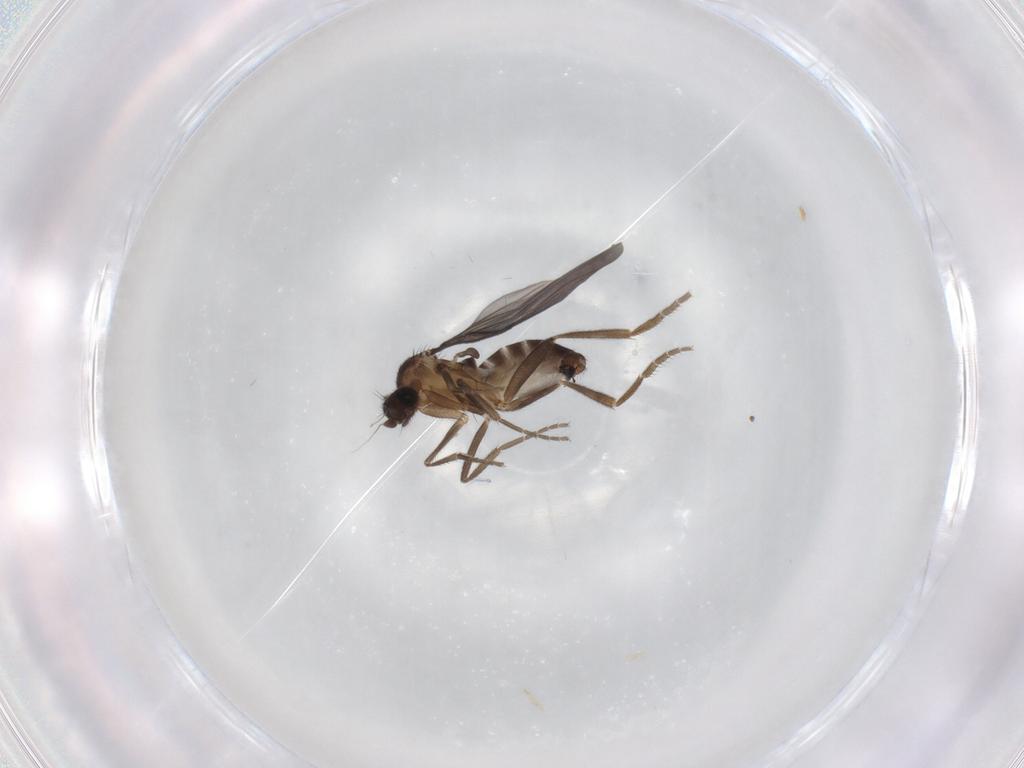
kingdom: Animalia
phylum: Arthropoda
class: Insecta
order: Diptera
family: Phoridae
